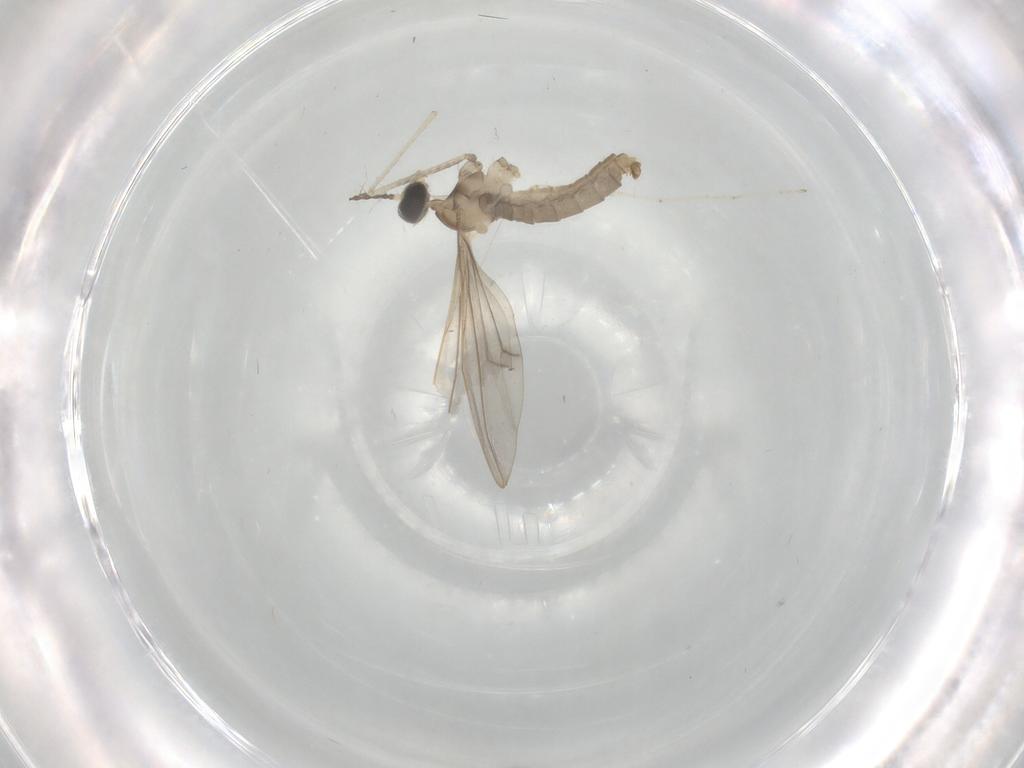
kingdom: Animalia
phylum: Arthropoda
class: Insecta
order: Diptera
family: Cecidomyiidae
